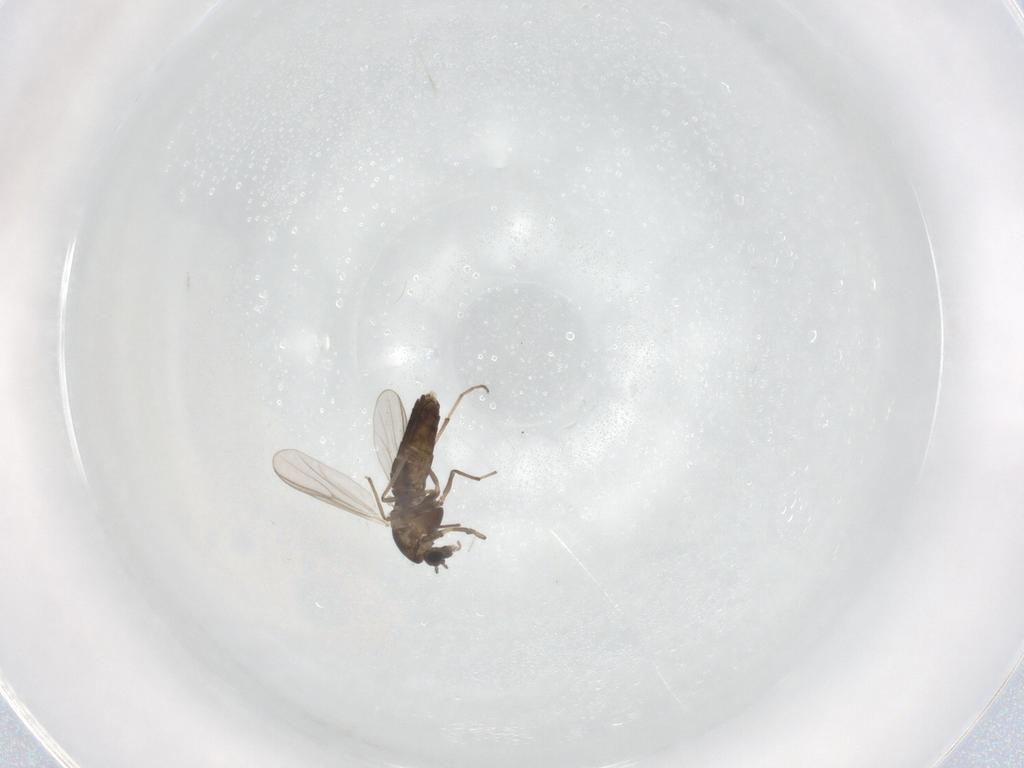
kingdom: Animalia
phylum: Arthropoda
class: Insecta
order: Diptera
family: Chironomidae
